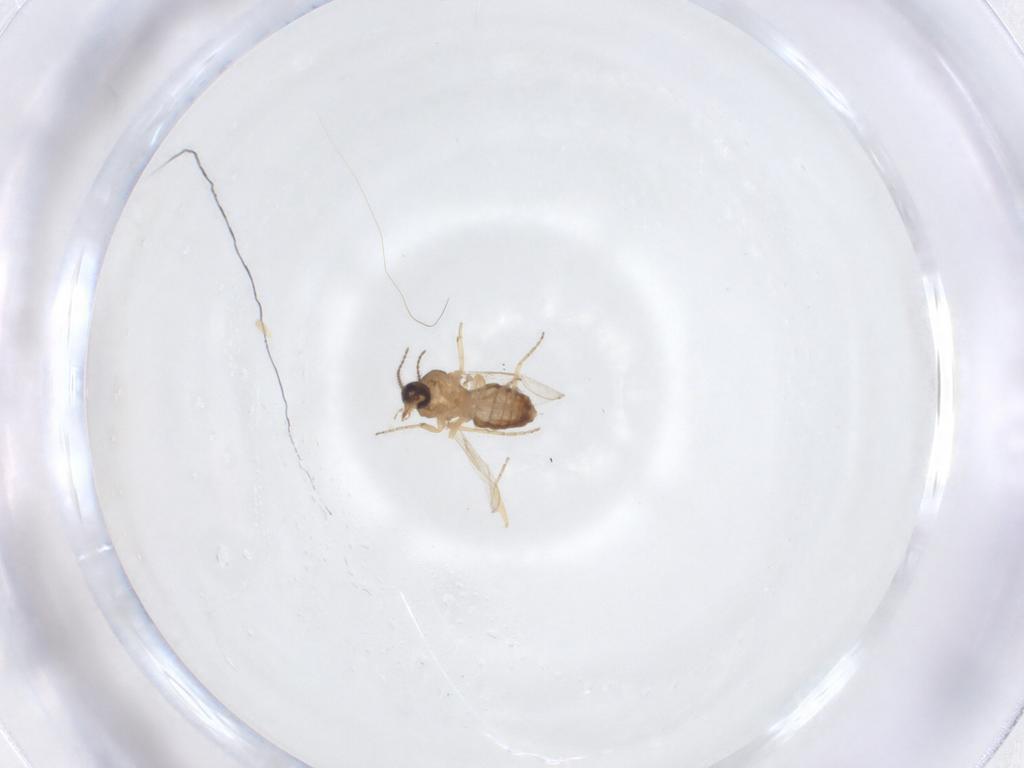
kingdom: Animalia
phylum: Arthropoda
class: Insecta
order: Diptera
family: Ceratopogonidae
